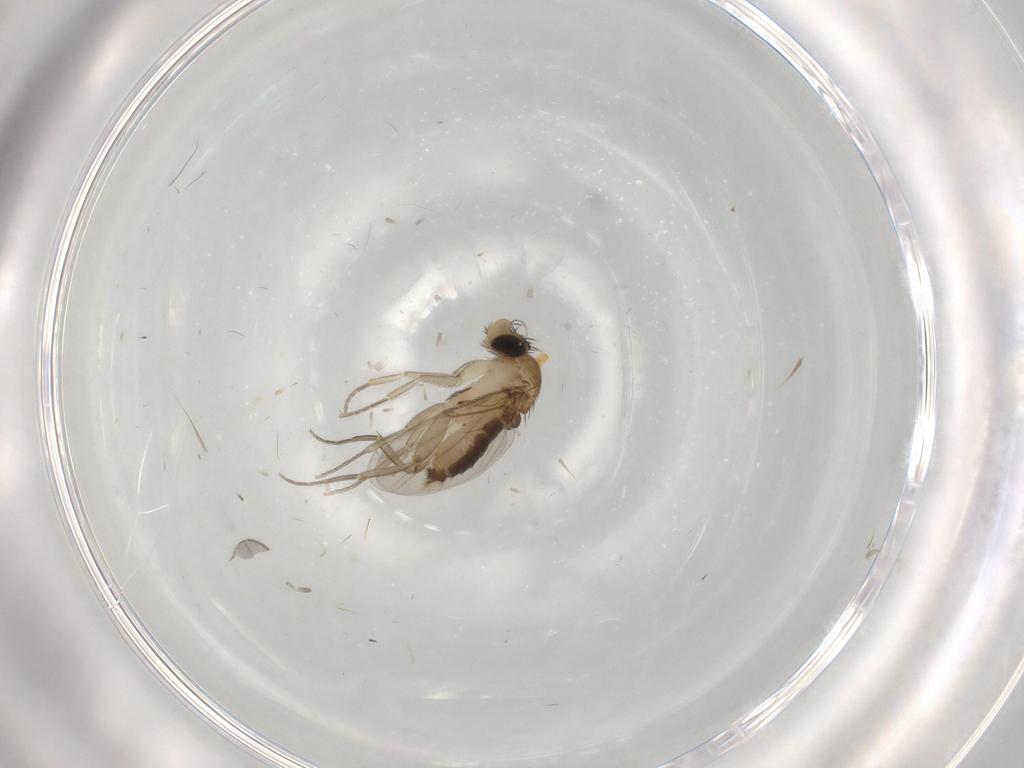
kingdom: Animalia
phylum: Arthropoda
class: Insecta
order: Diptera
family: Phoridae
